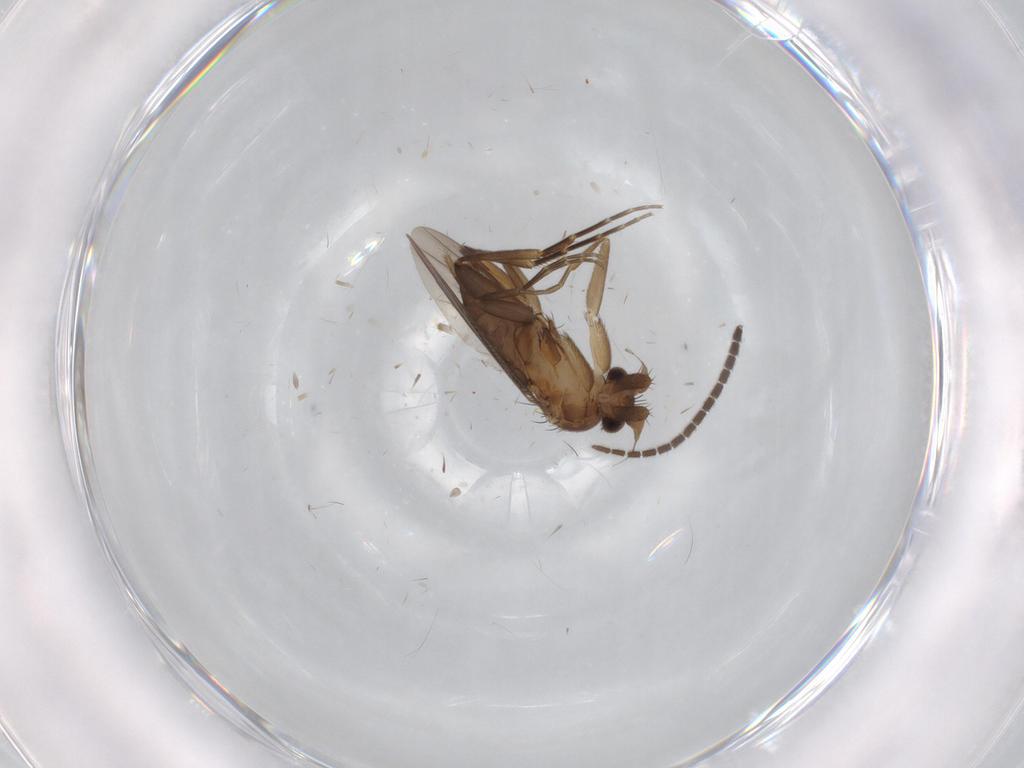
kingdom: Animalia
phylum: Arthropoda
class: Insecta
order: Diptera
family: Sciaridae
